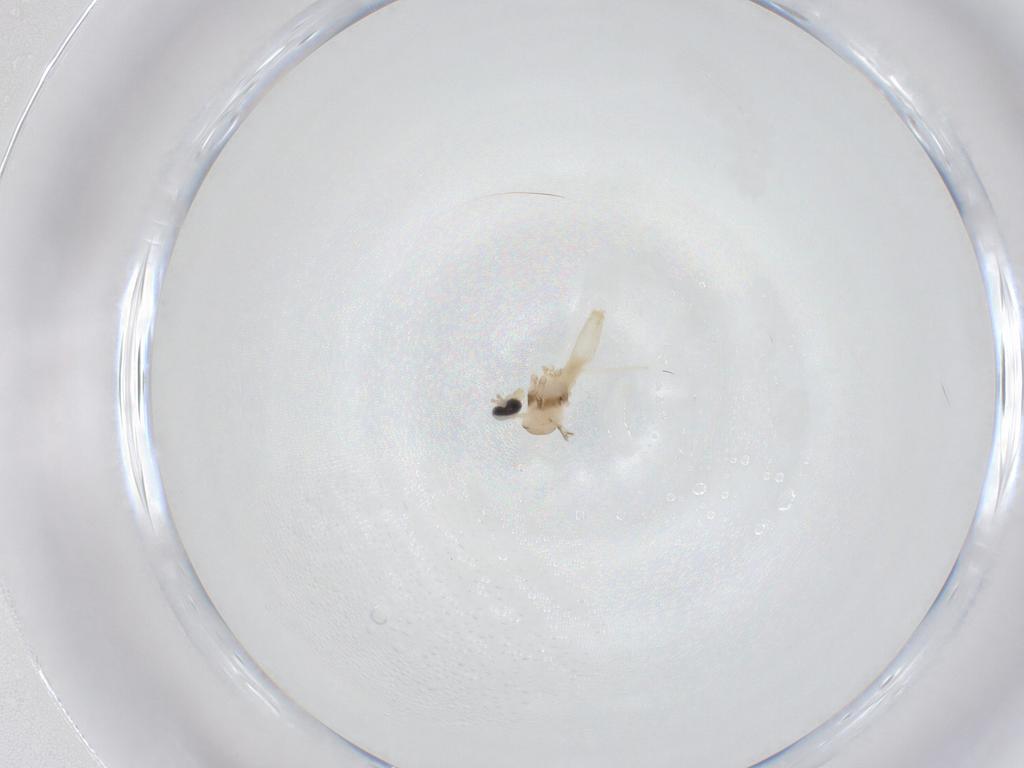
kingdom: Animalia
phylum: Arthropoda
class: Insecta
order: Diptera
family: Cecidomyiidae
